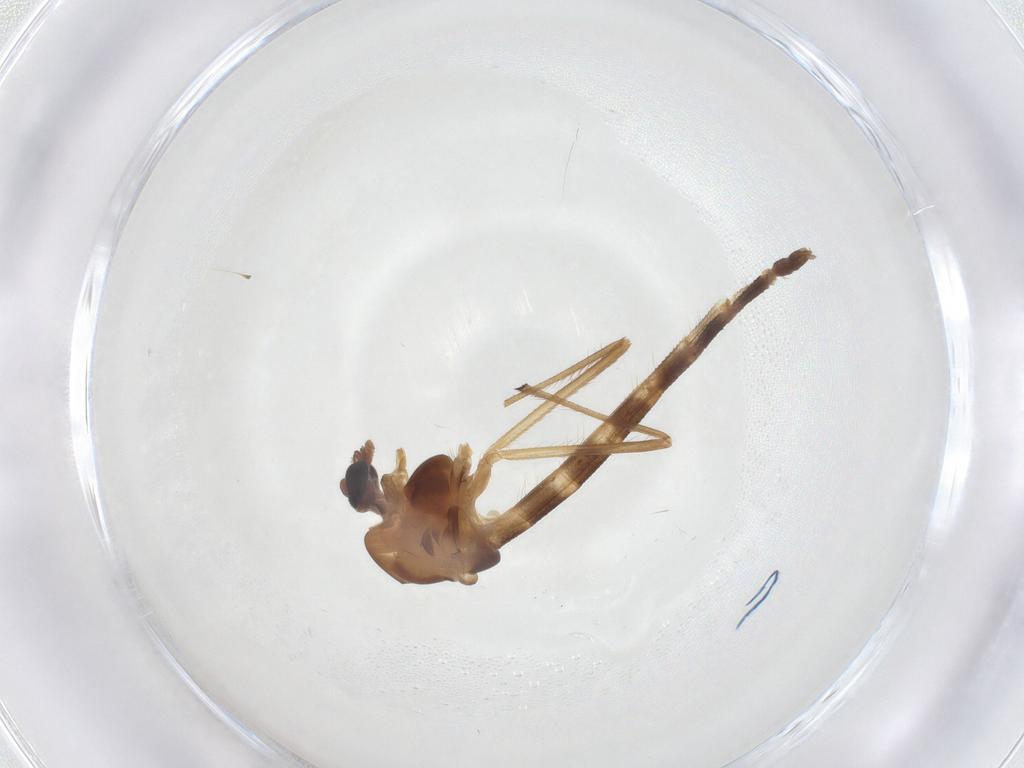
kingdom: Animalia
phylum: Arthropoda
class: Insecta
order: Diptera
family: Chironomidae
